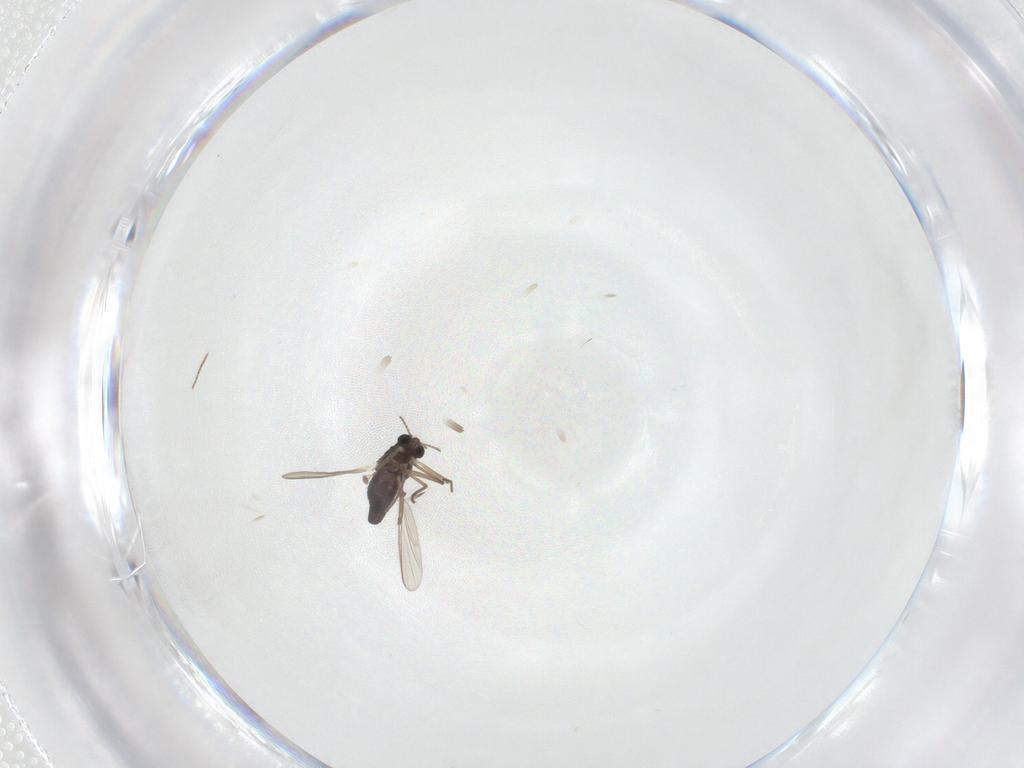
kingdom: Animalia
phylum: Arthropoda
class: Insecta
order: Diptera
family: Chironomidae
